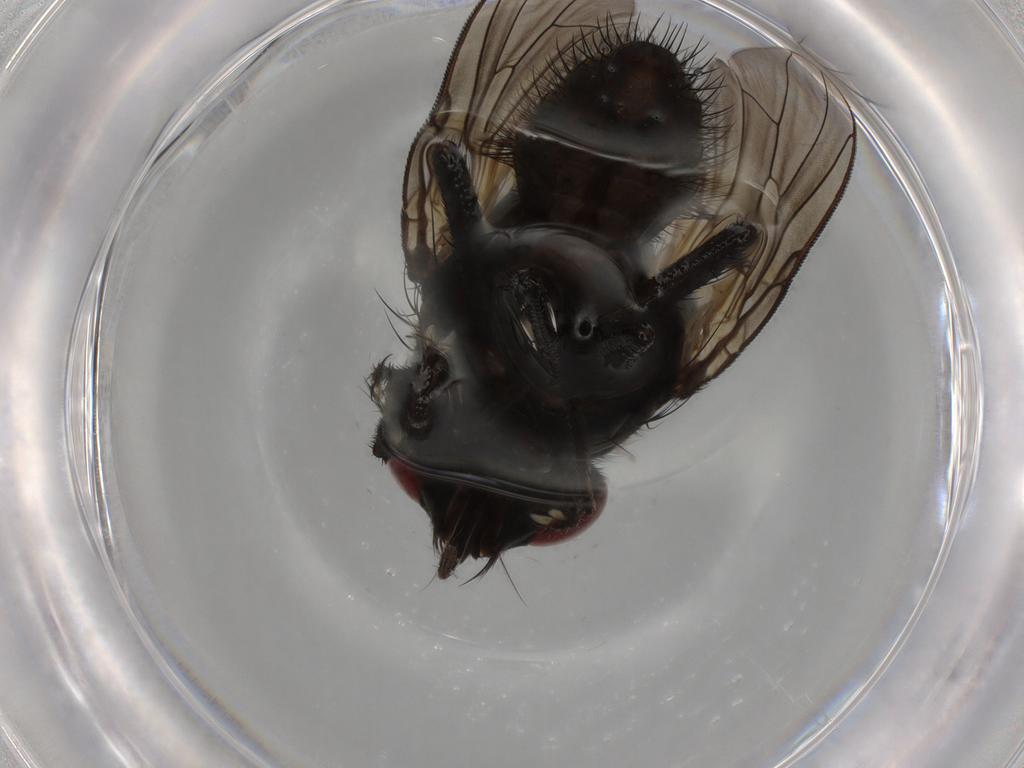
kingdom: Animalia
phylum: Arthropoda
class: Insecta
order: Diptera
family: Muscidae
